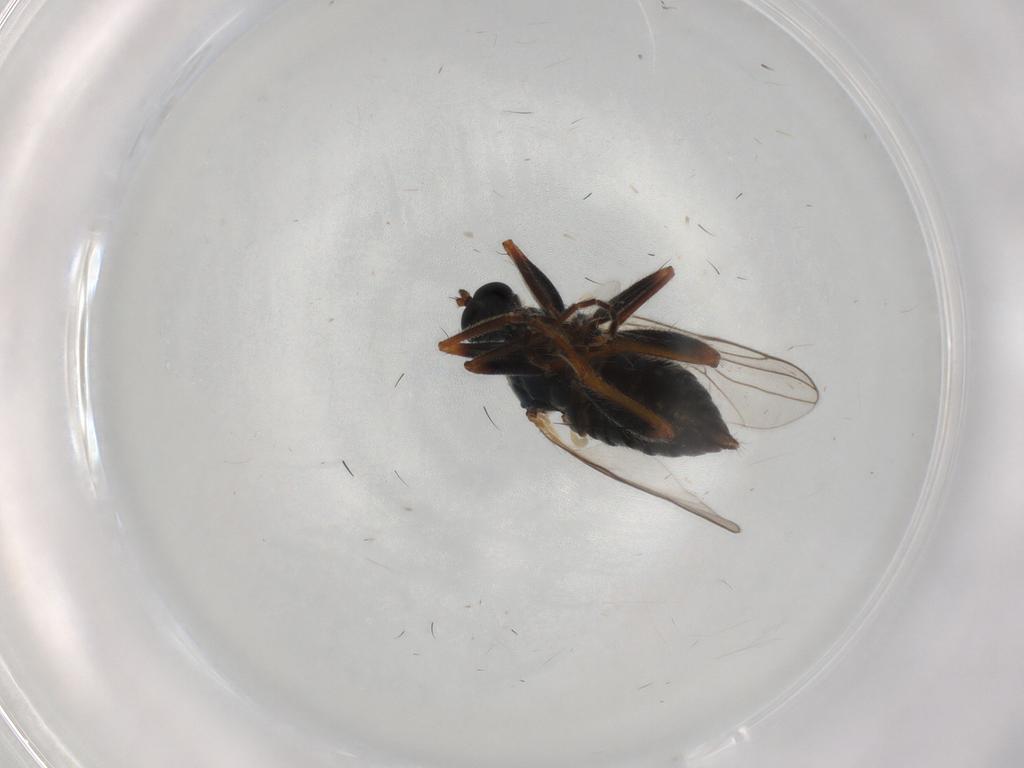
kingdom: Animalia
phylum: Arthropoda
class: Insecta
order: Diptera
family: Hybotidae
